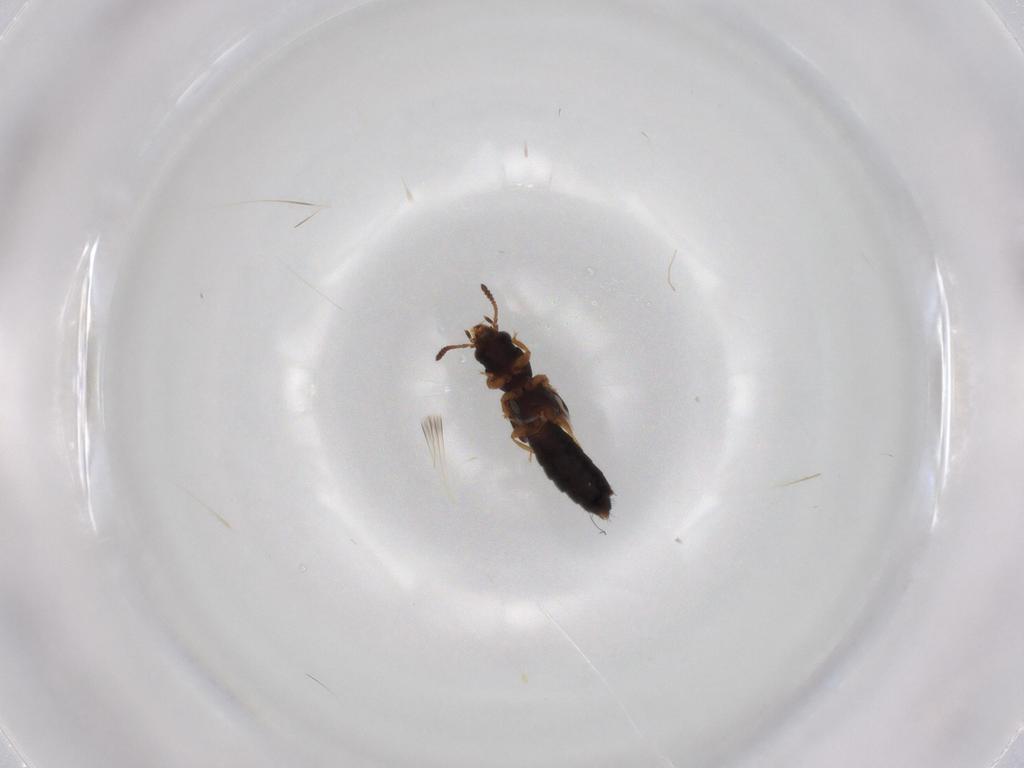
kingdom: Animalia
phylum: Arthropoda
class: Insecta
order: Coleoptera
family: Staphylinidae
